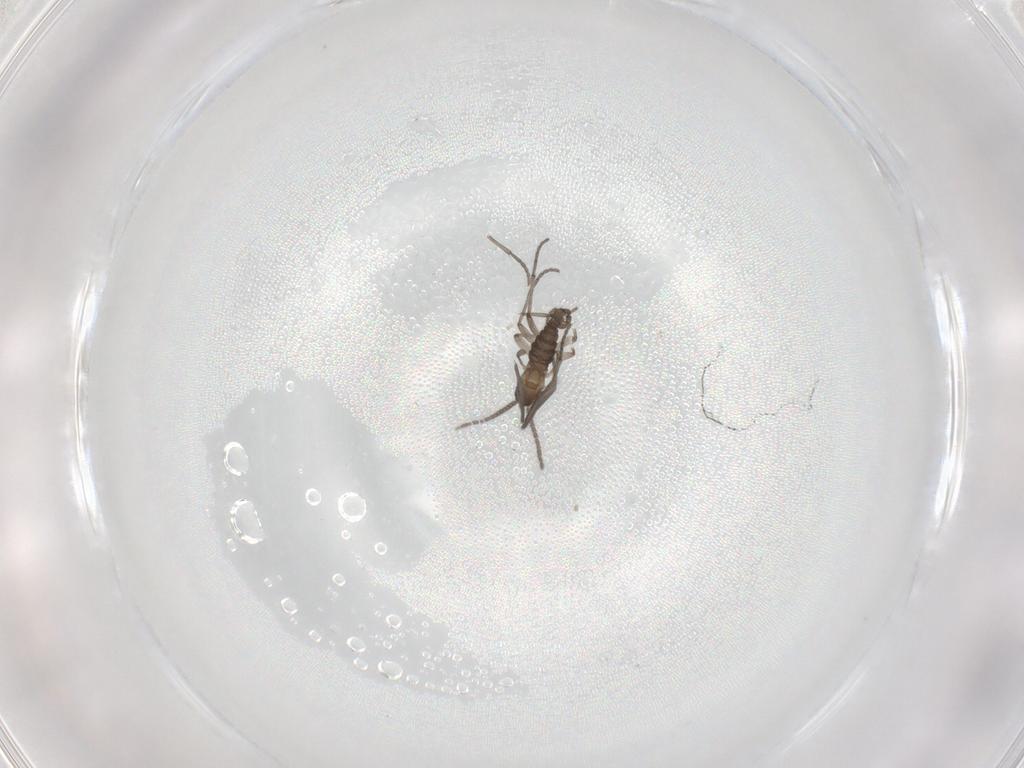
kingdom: Animalia
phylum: Arthropoda
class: Insecta
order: Diptera
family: Sciaridae
